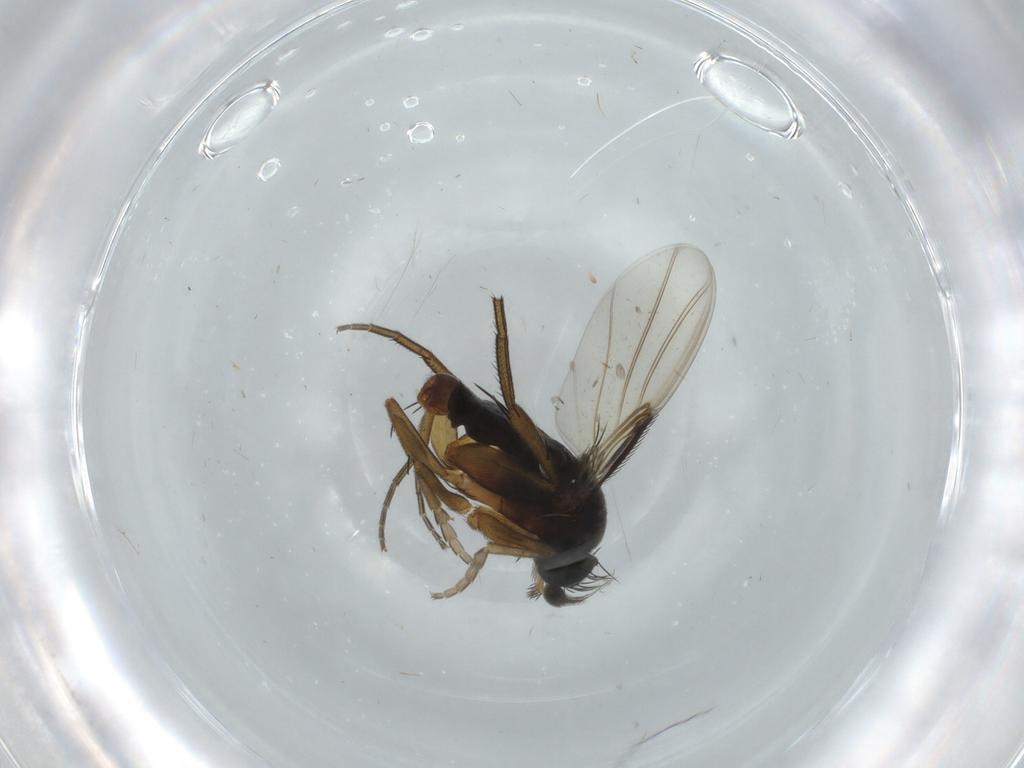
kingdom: Animalia
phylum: Arthropoda
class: Insecta
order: Diptera
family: Phoridae
